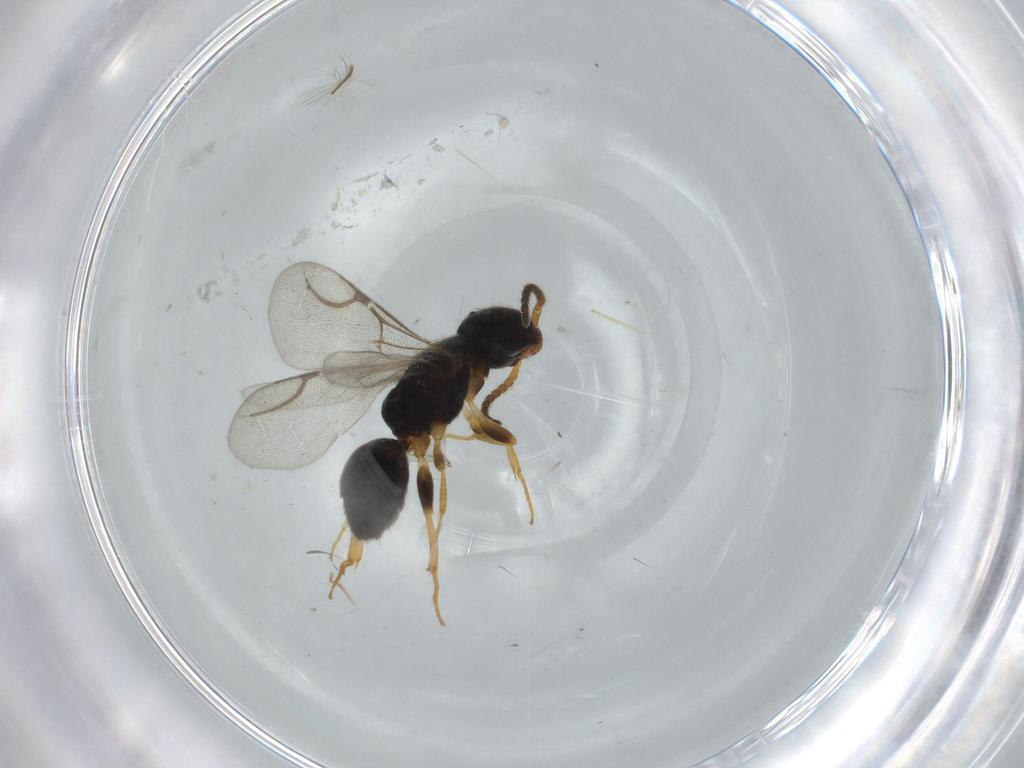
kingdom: Animalia
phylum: Arthropoda
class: Insecta
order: Hymenoptera
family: Bethylidae
